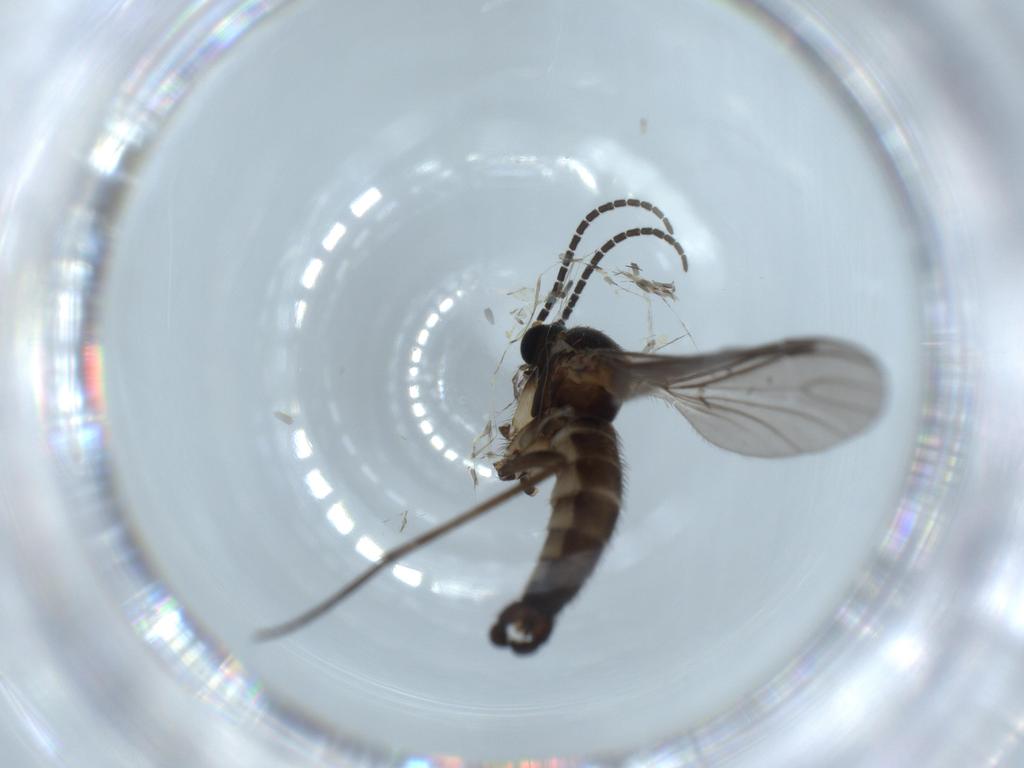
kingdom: Animalia
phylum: Arthropoda
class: Insecta
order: Diptera
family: Sciaridae
